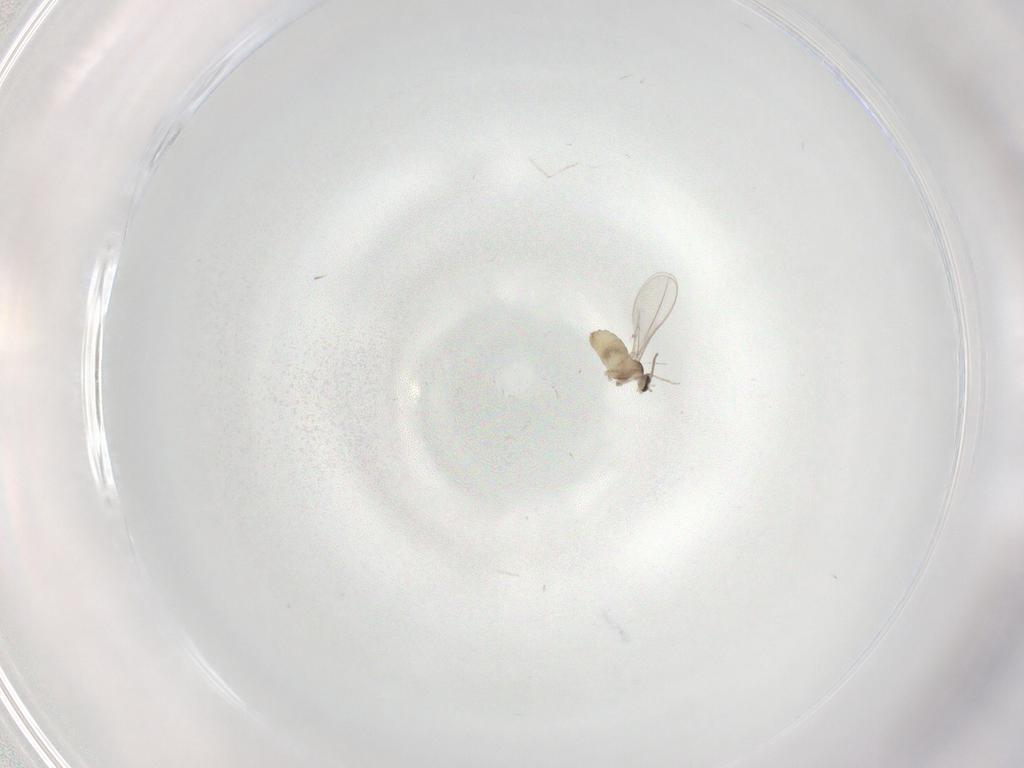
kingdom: Animalia
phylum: Arthropoda
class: Insecta
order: Diptera
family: Cecidomyiidae
